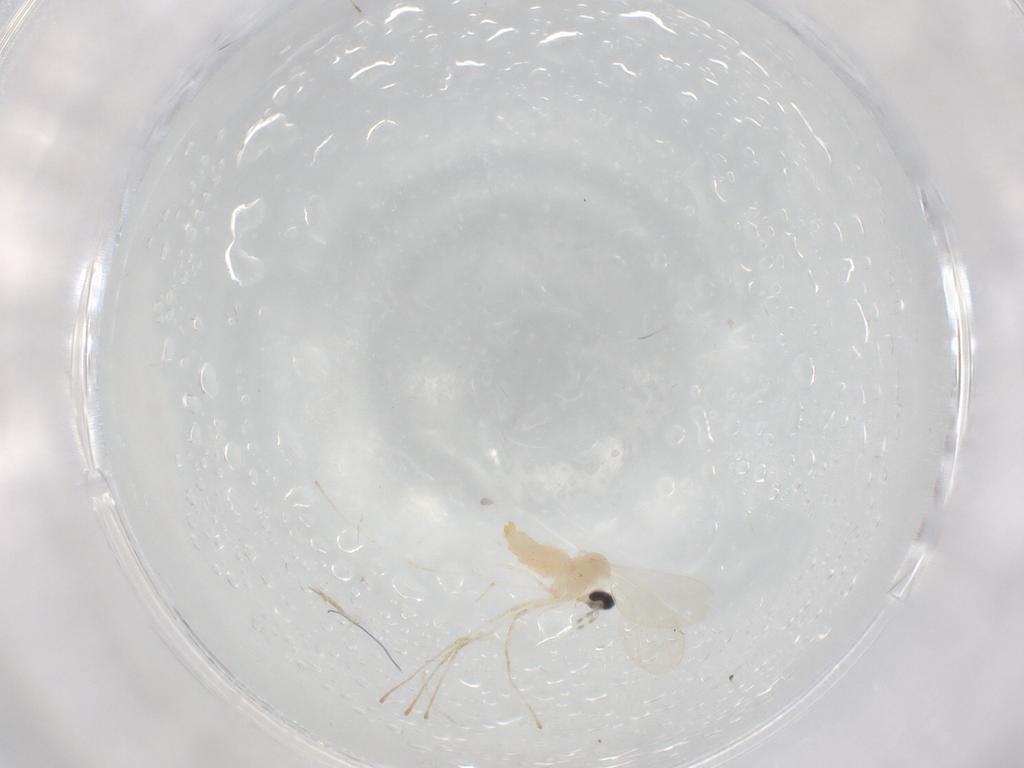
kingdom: Animalia
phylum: Arthropoda
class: Insecta
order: Diptera
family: Cecidomyiidae
